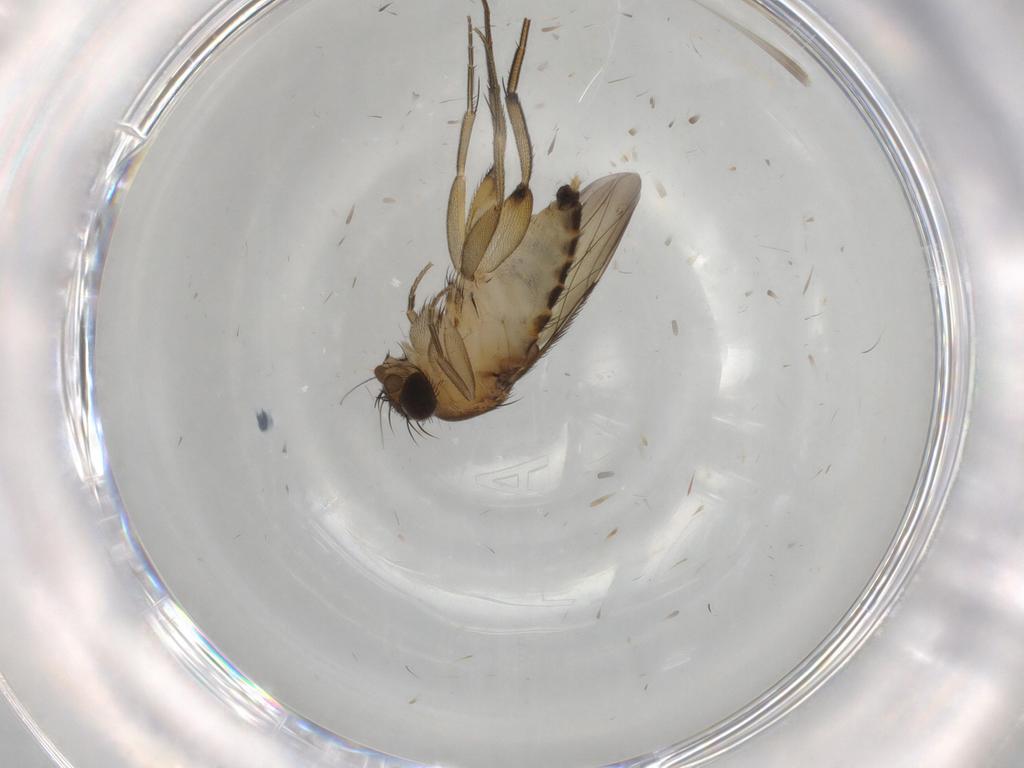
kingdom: Animalia
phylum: Arthropoda
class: Insecta
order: Diptera
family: Phoridae
